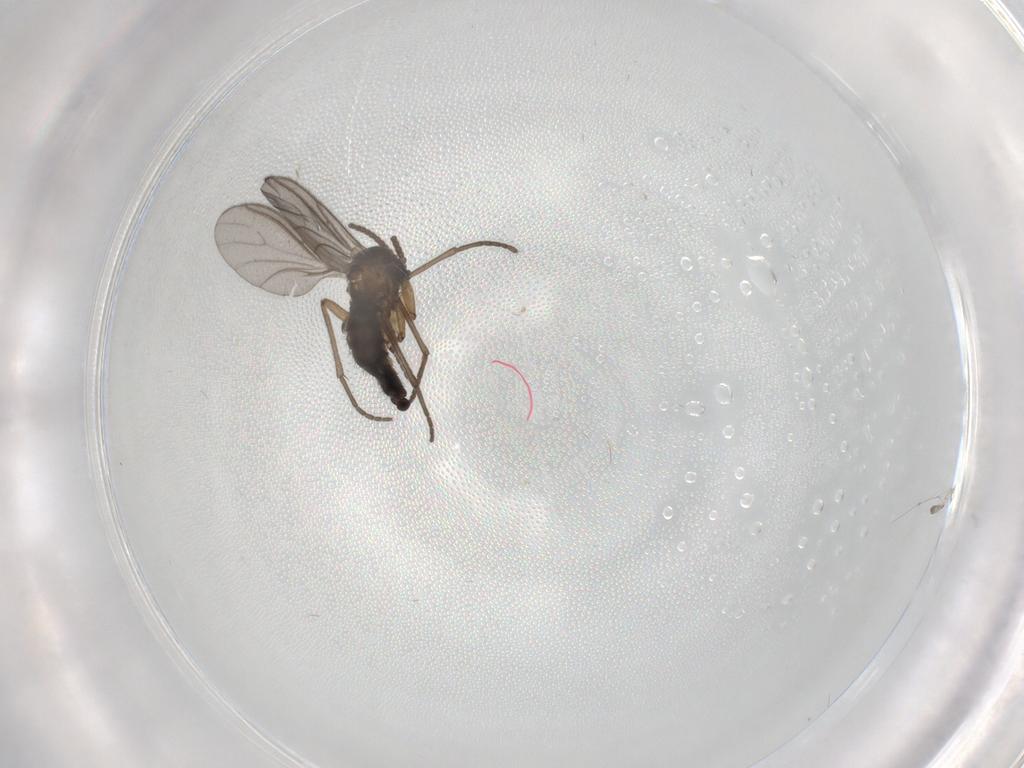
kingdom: Animalia
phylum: Arthropoda
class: Insecta
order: Diptera
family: Sciaridae
